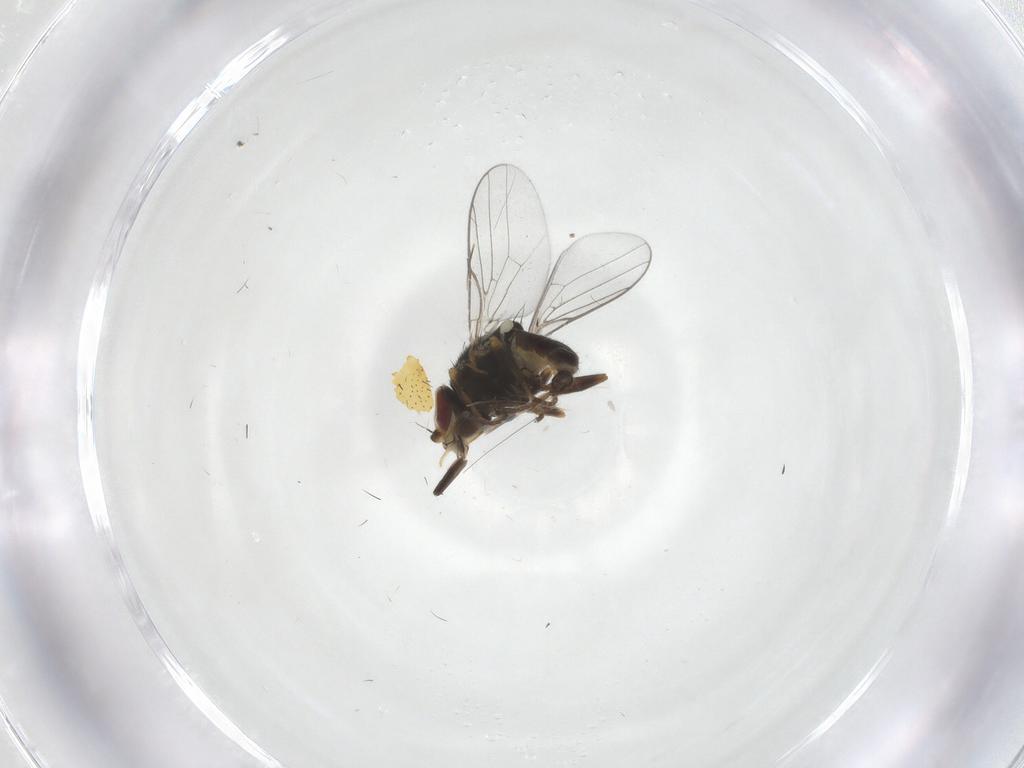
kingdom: Animalia
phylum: Arthropoda
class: Insecta
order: Diptera
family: Chloropidae
